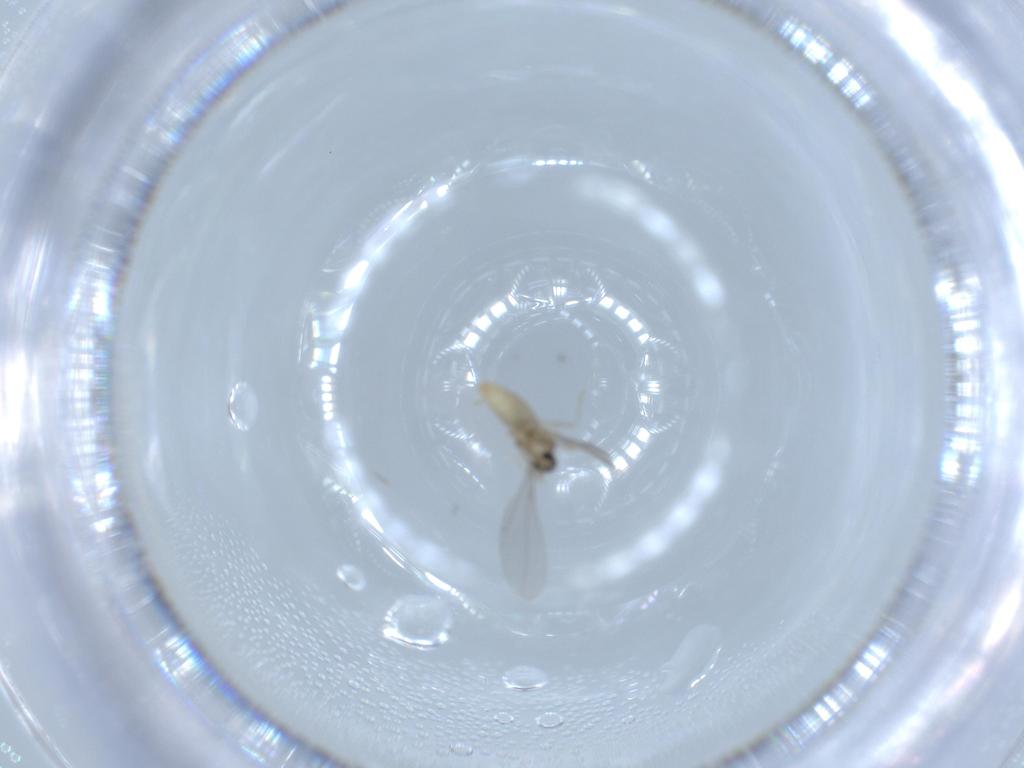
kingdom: Animalia
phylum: Arthropoda
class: Insecta
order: Diptera
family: Cecidomyiidae
